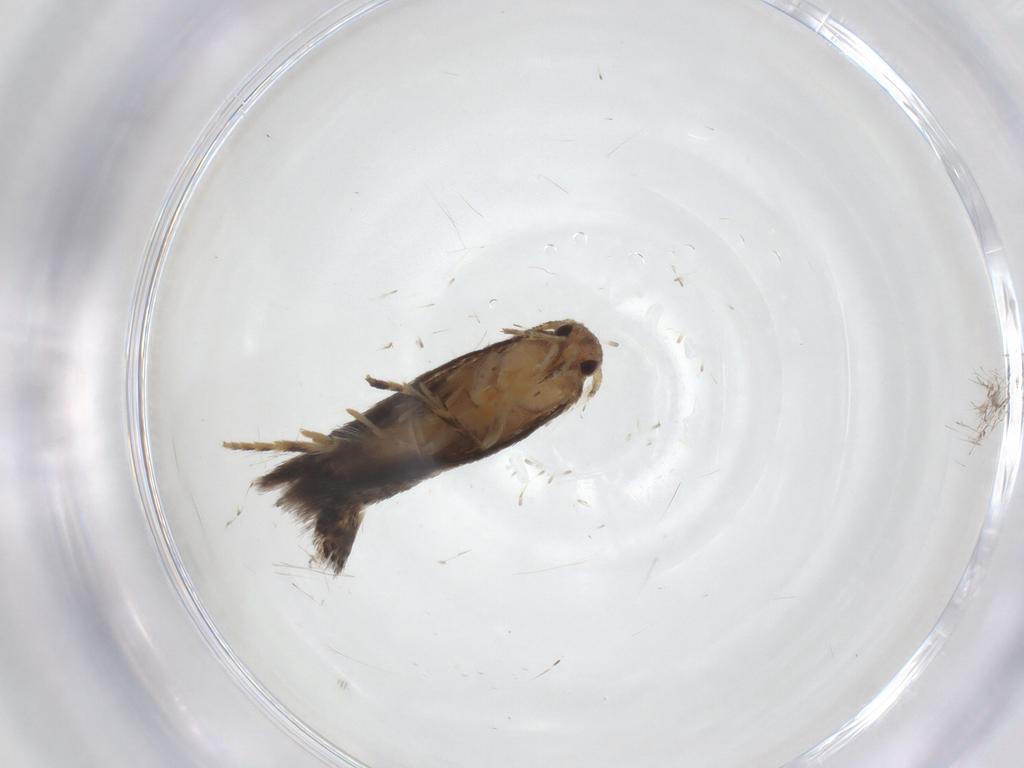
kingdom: Animalia
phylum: Arthropoda
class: Insecta
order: Lepidoptera
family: Elachistidae
